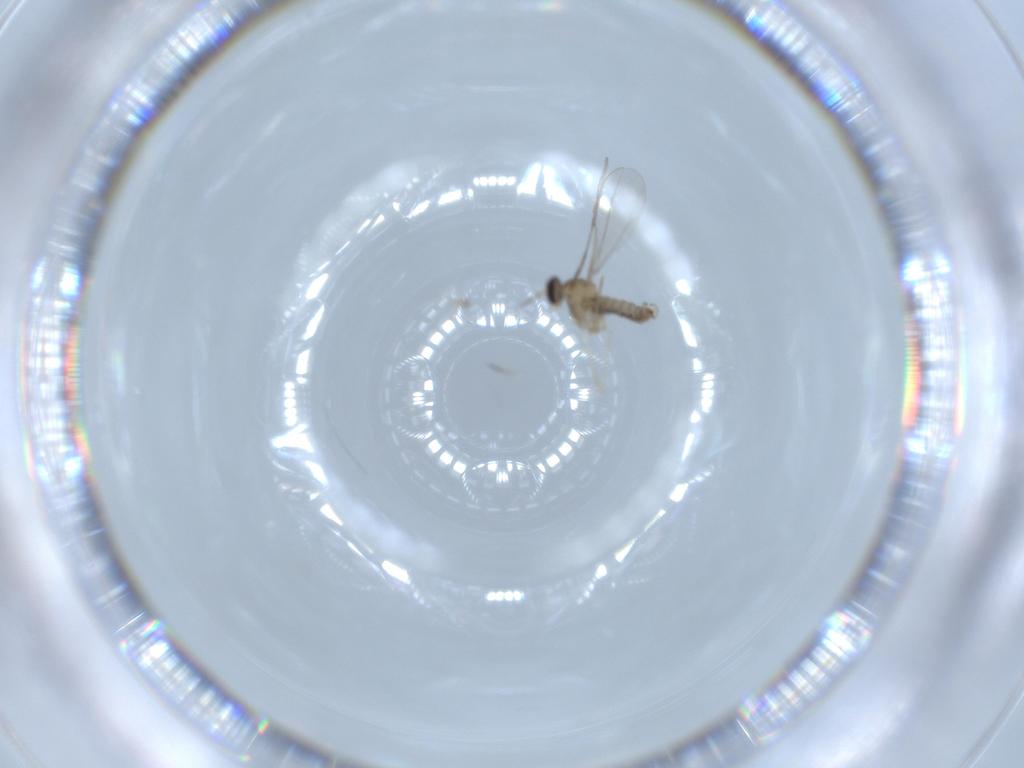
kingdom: Animalia
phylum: Arthropoda
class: Insecta
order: Diptera
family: Cecidomyiidae
